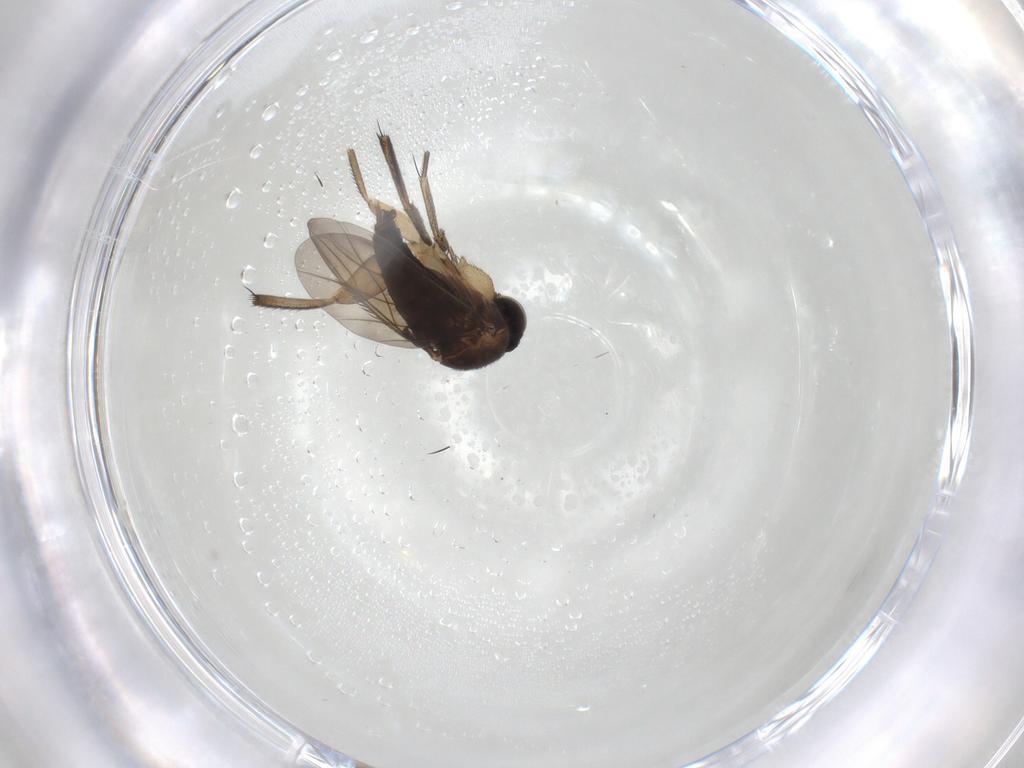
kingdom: Animalia
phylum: Arthropoda
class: Insecta
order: Diptera
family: Phoridae
